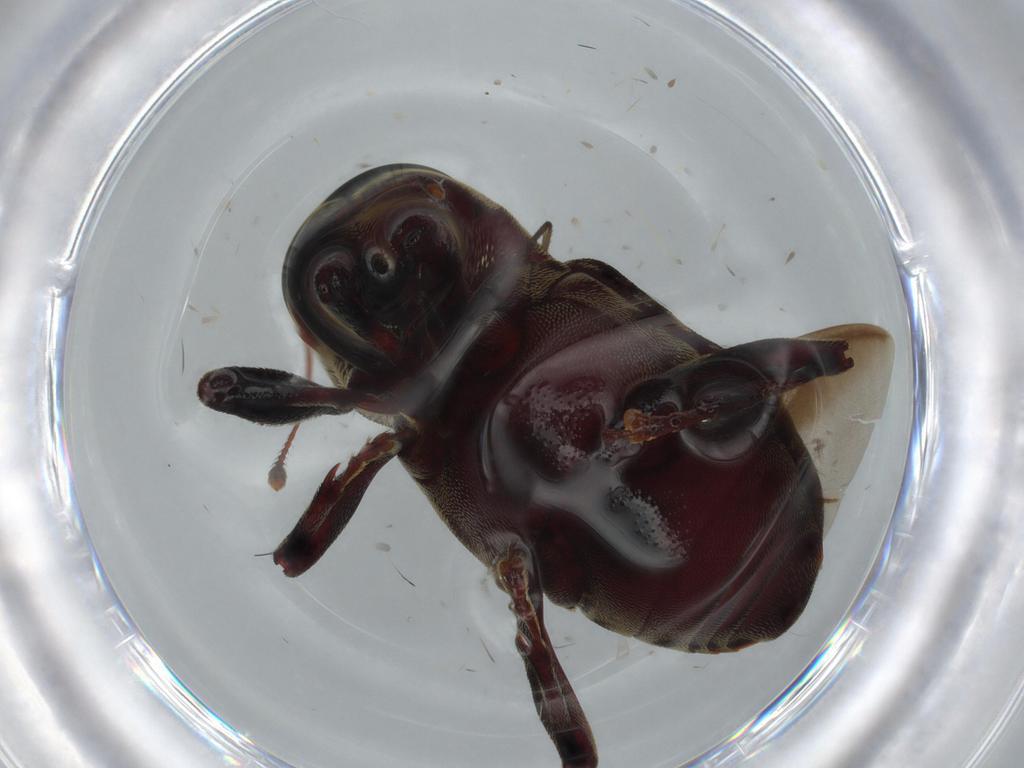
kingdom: Animalia
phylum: Arthropoda
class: Insecta
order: Coleoptera
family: Curculionidae
